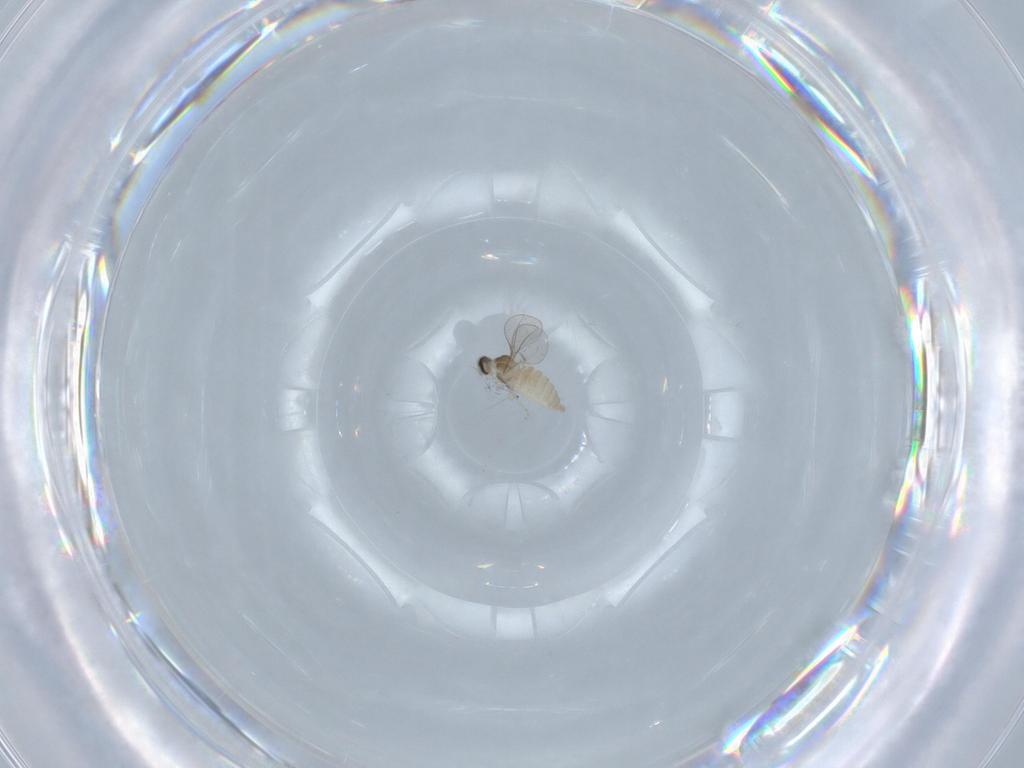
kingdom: Animalia
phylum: Arthropoda
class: Insecta
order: Diptera
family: Cecidomyiidae
